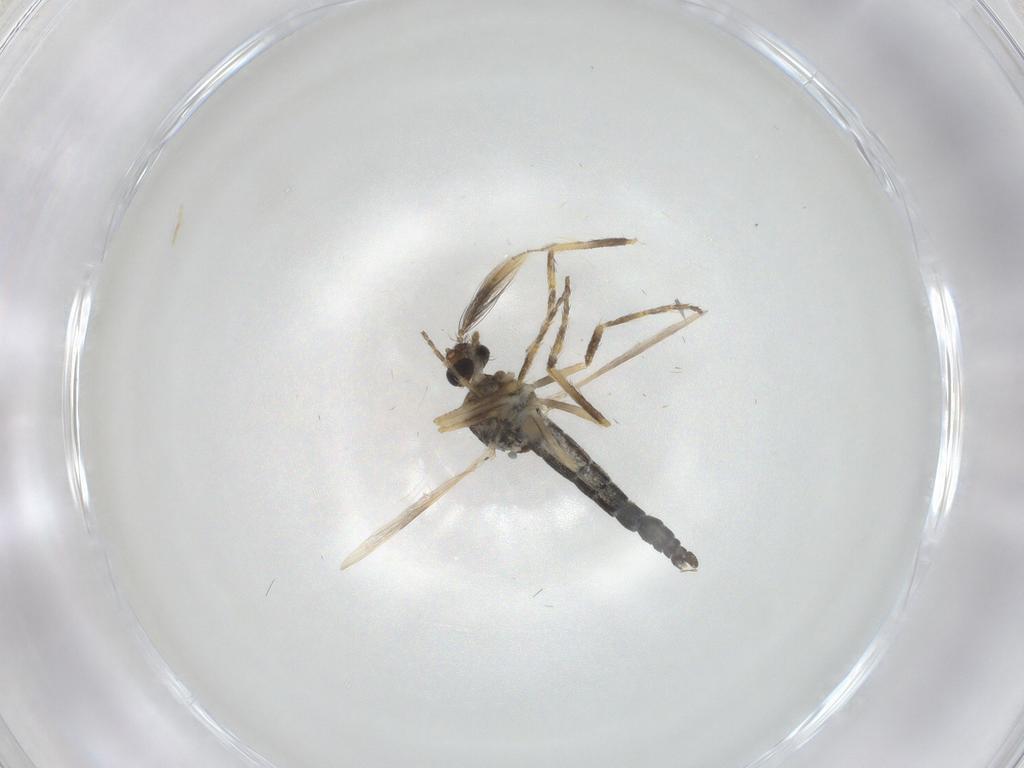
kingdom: Animalia
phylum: Arthropoda
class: Insecta
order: Diptera
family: Ceratopogonidae
